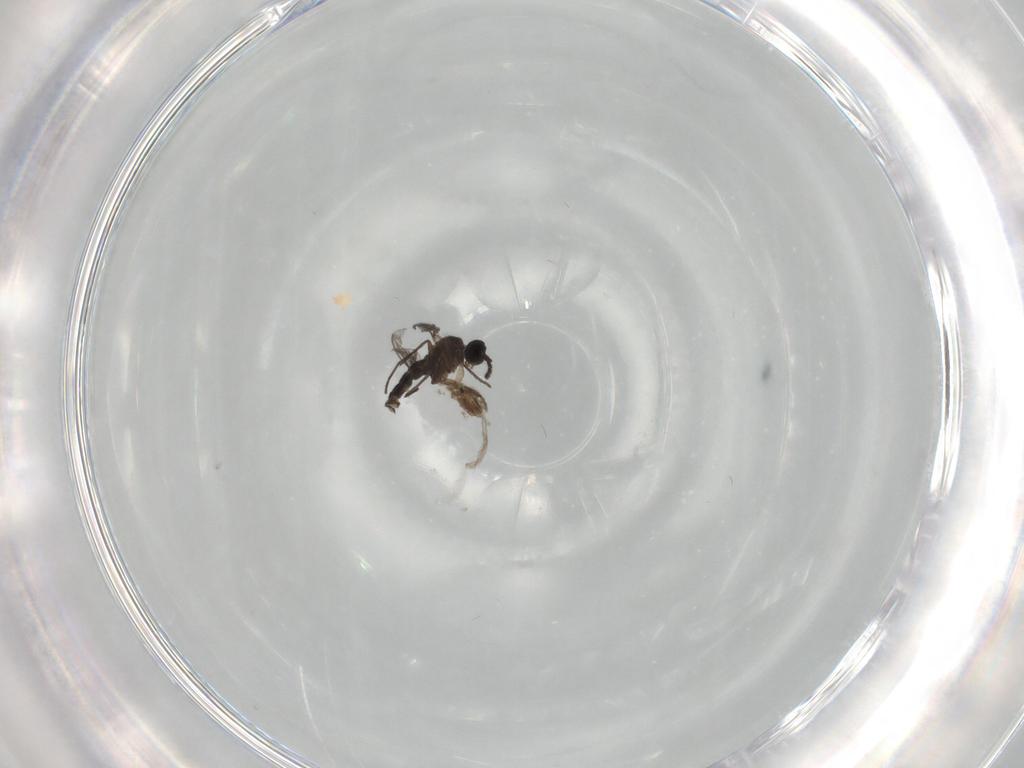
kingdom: Animalia
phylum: Arthropoda
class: Insecta
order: Diptera
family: Sciaridae
